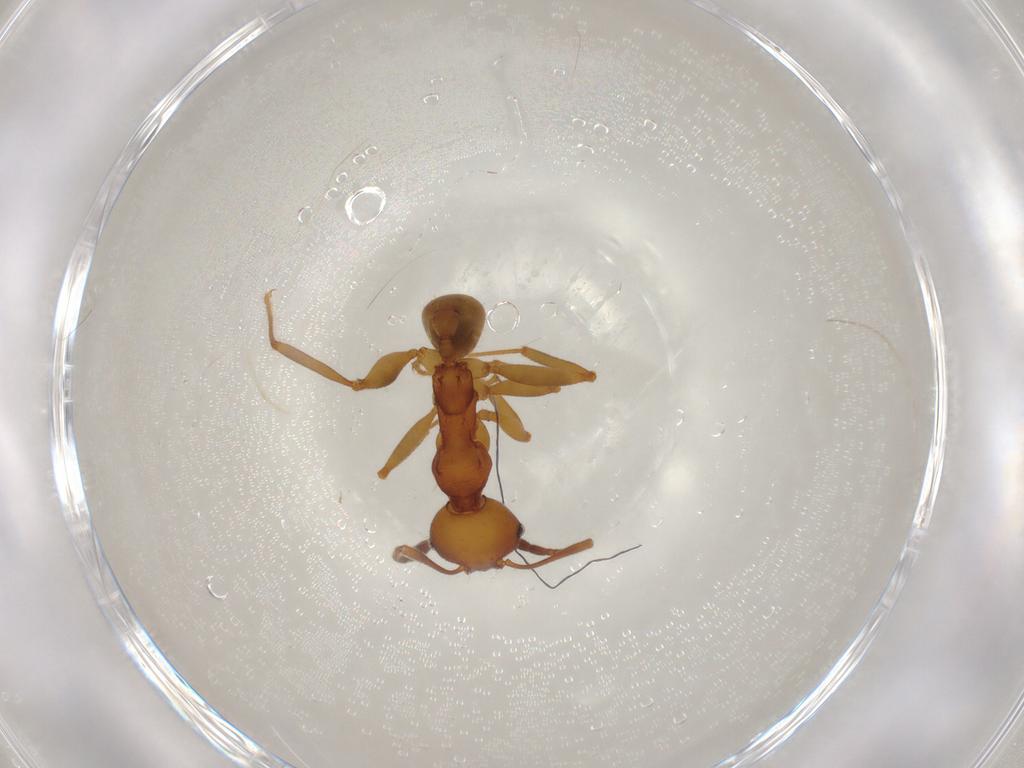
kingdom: Animalia
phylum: Arthropoda
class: Insecta
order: Hymenoptera
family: Formicidae
